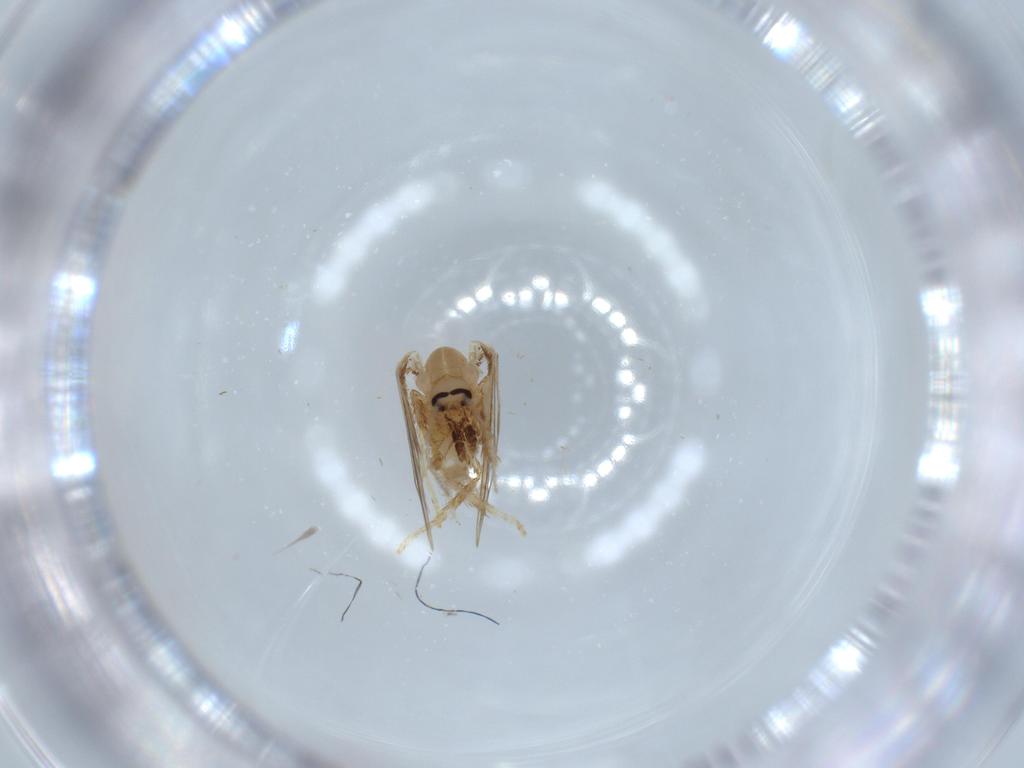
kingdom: Animalia
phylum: Arthropoda
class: Insecta
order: Diptera
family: Psychodidae
